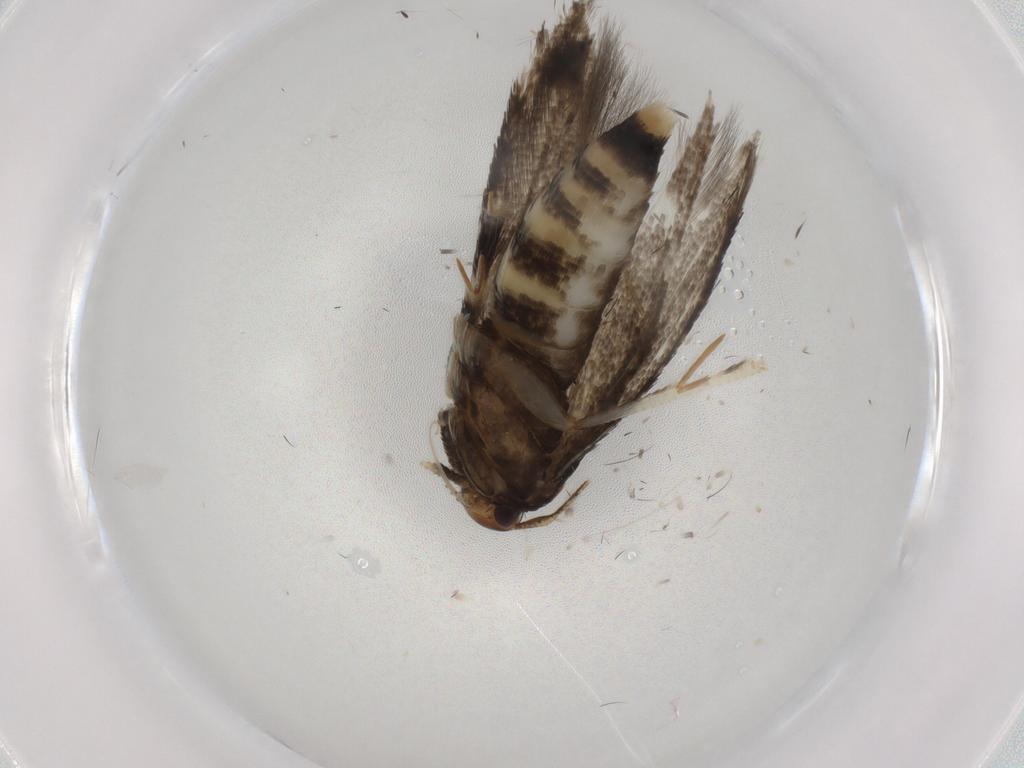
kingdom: Animalia
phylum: Arthropoda
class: Insecta
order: Lepidoptera
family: Momphidae
